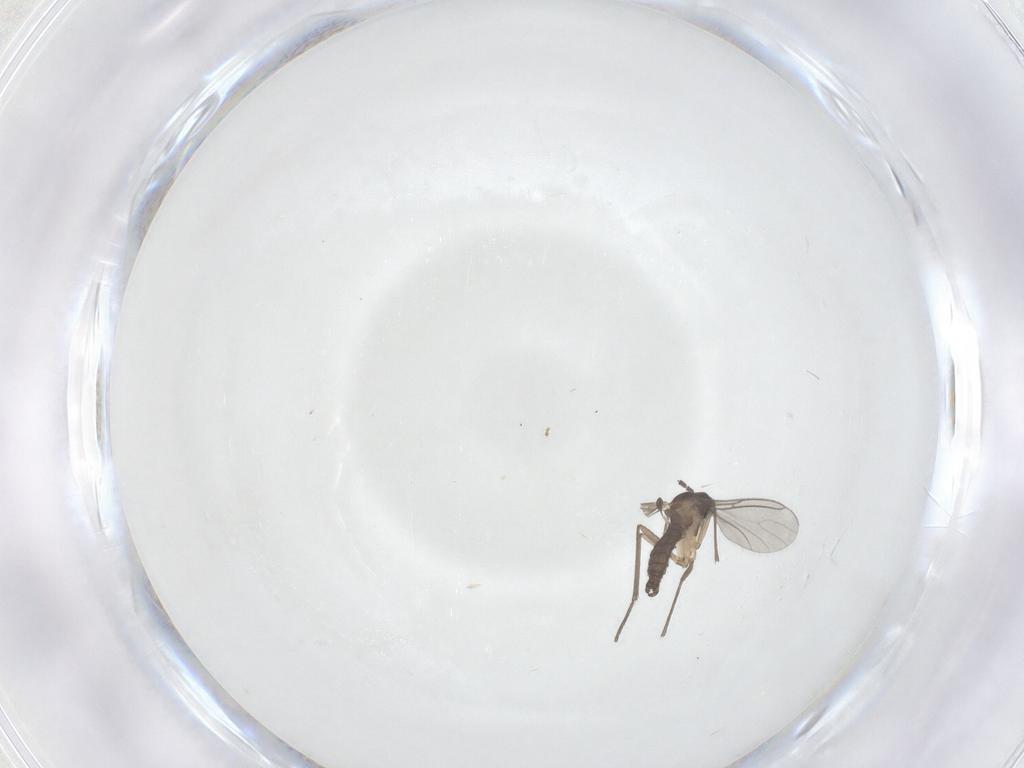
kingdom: Animalia
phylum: Arthropoda
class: Insecta
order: Diptera
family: Sciaridae
